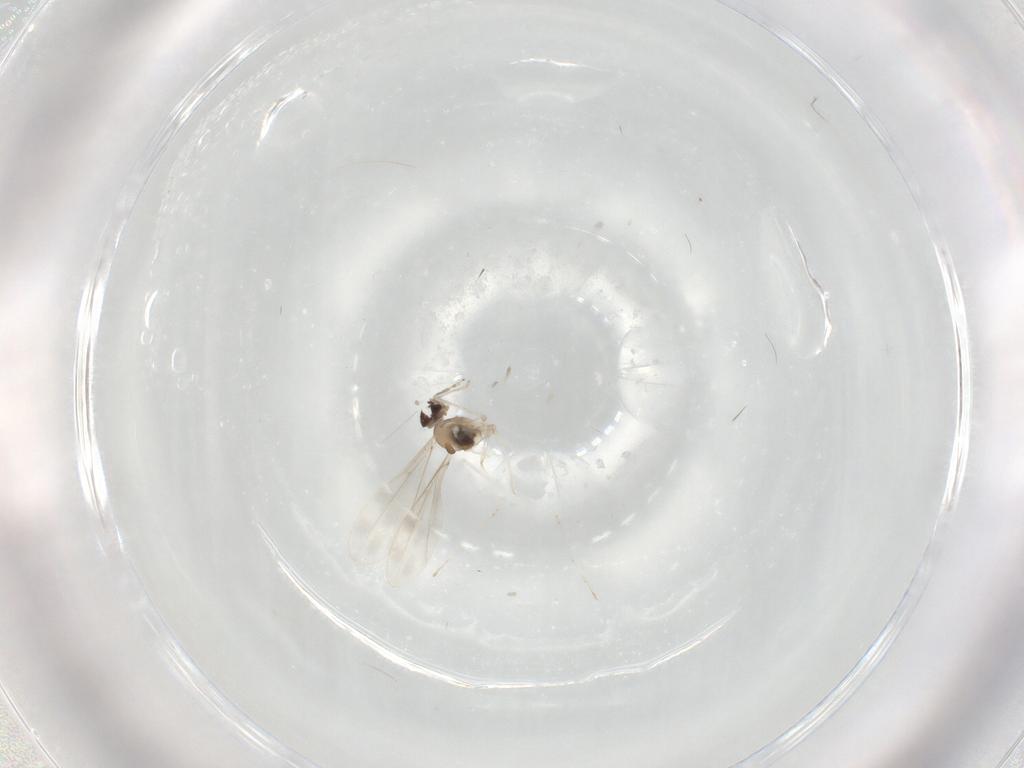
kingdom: Animalia
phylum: Arthropoda
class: Insecta
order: Diptera
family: Cecidomyiidae
